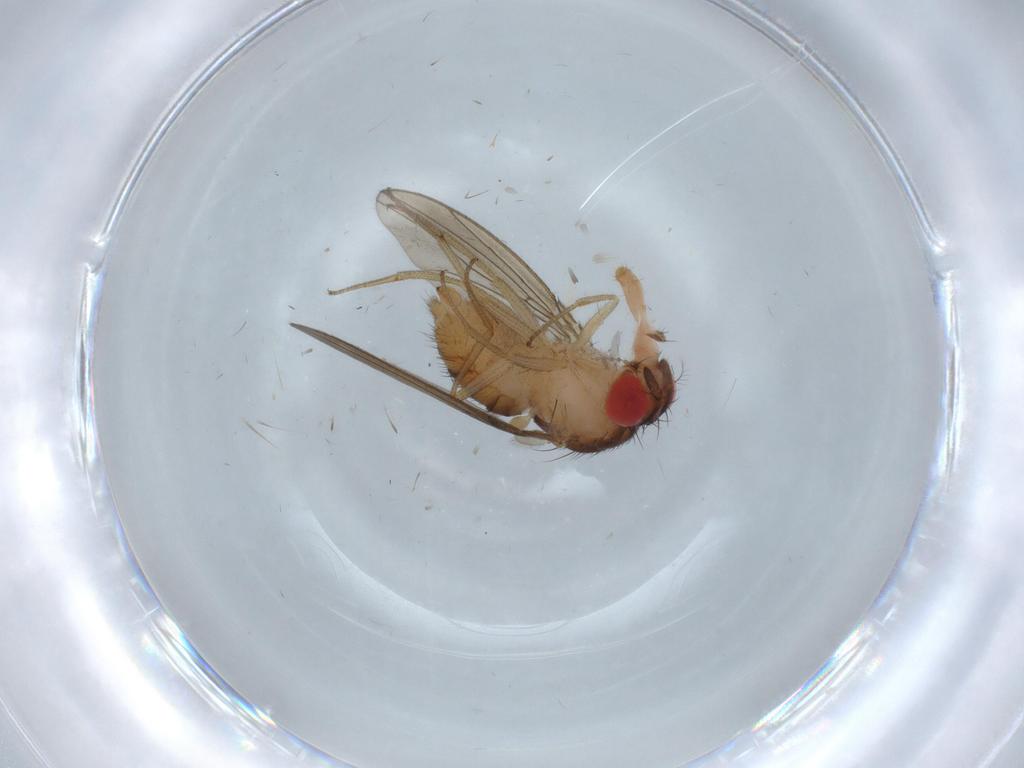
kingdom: Animalia
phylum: Arthropoda
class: Insecta
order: Diptera
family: Drosophilidae
